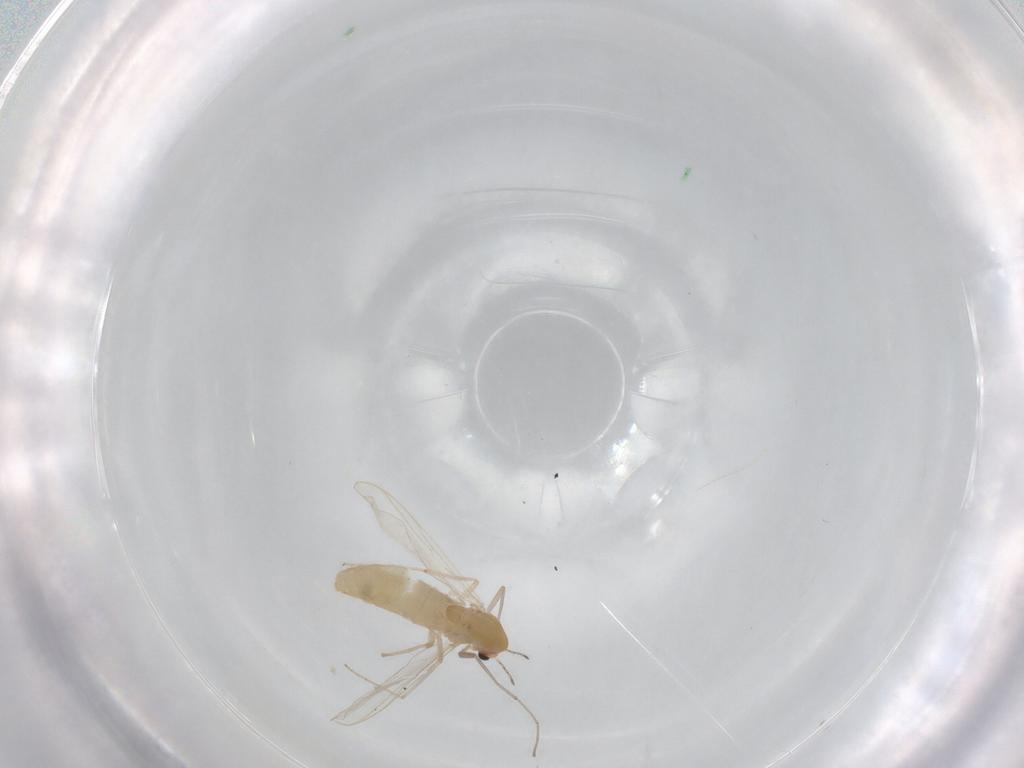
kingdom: Animalia
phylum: Arthropoda
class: Insecta
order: Diptera
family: Chironomidae
